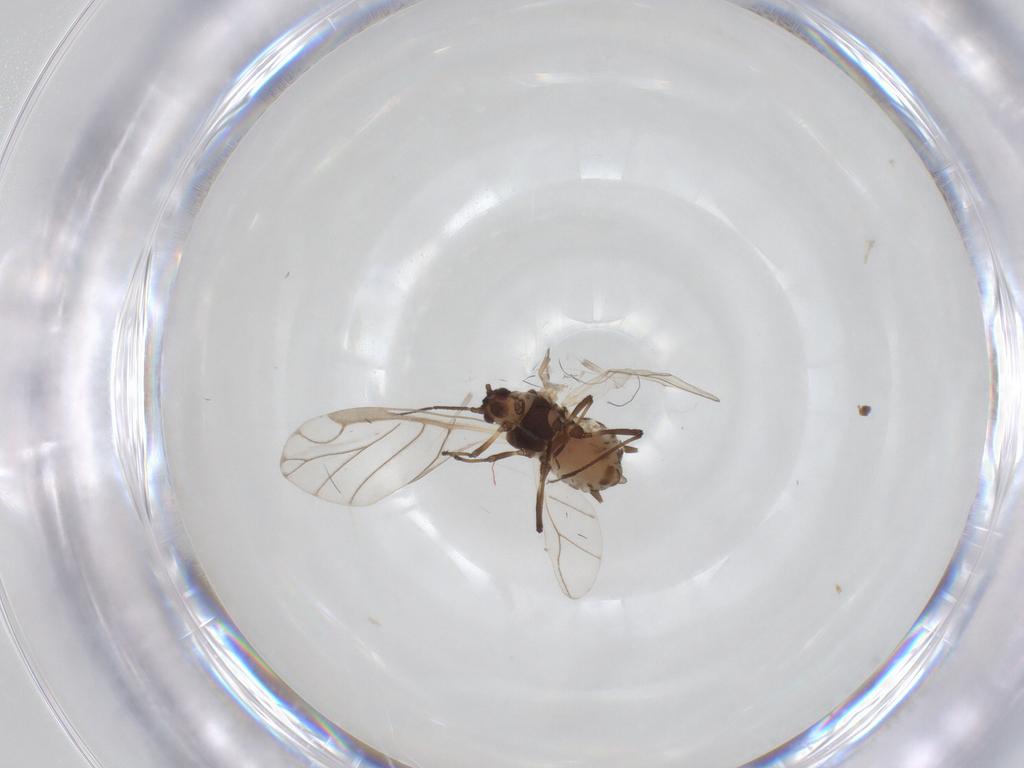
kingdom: Animalia
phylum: Arthropoda
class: Insecta
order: Hemiptera
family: Aphididae
